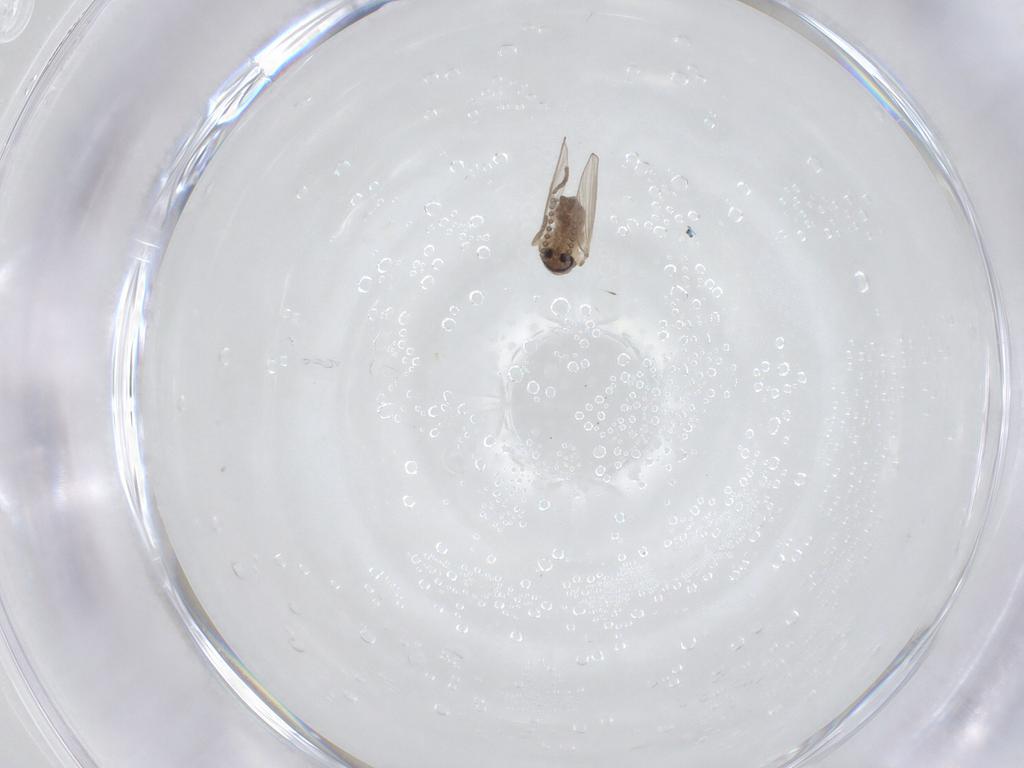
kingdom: Animalia
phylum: Arthropoda
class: Insecta
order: Diptera
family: Psychodidae
